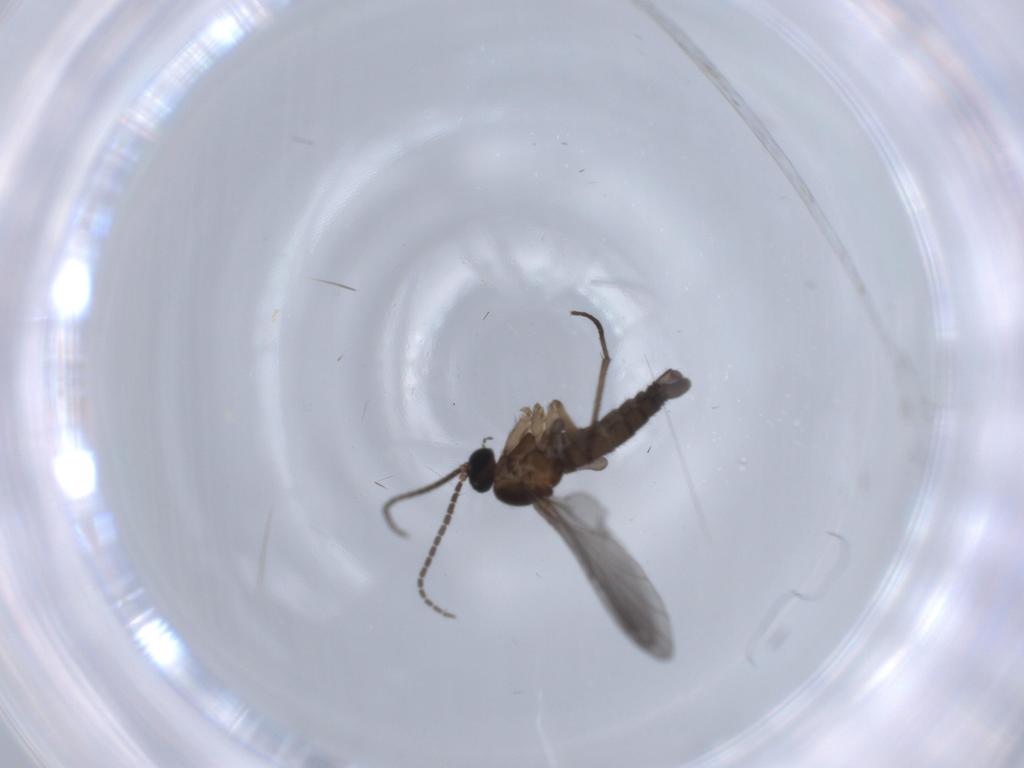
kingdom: Animalia
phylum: Arthropoda
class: Insecta
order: Diptera
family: Sciaridae
